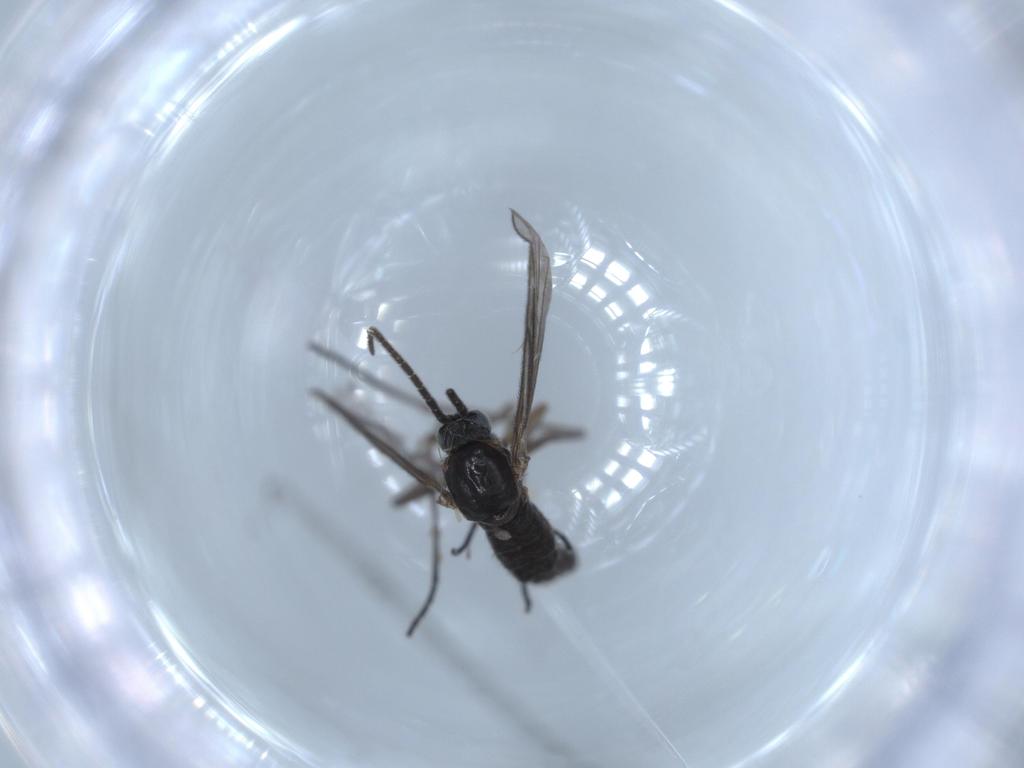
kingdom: Animalia
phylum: Arthropoda
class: Insecta
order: Diptera
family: Sciaridae
